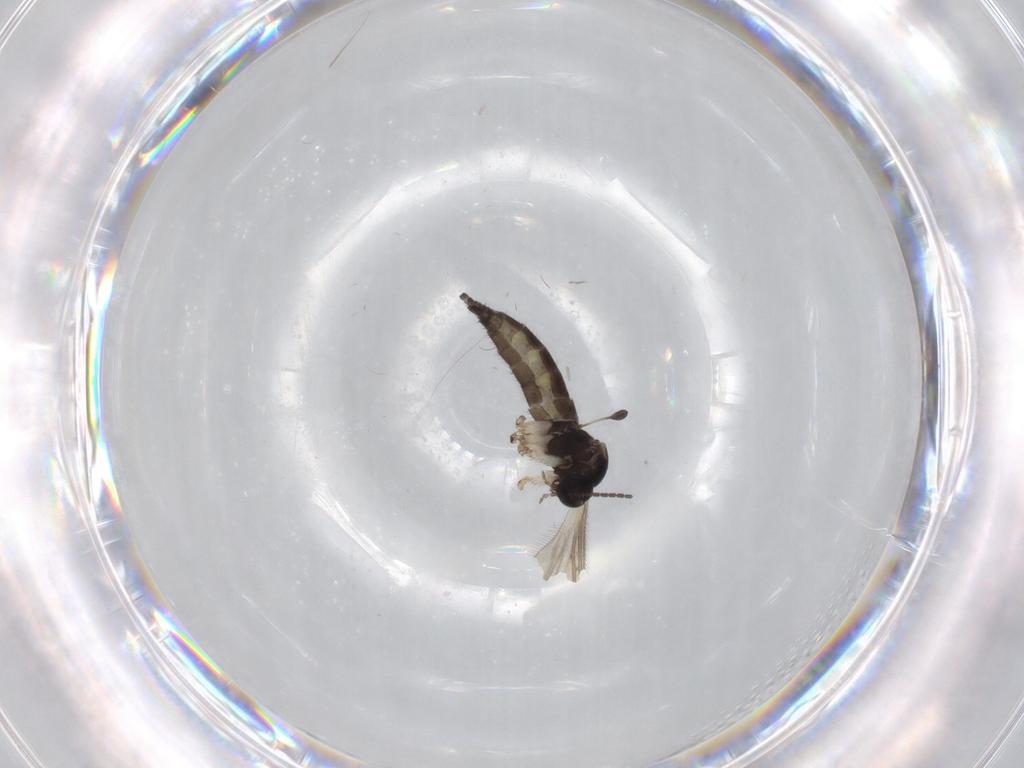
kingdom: Animalia
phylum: Arthropoda
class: Insecta
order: Diptera
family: Sciaridae
